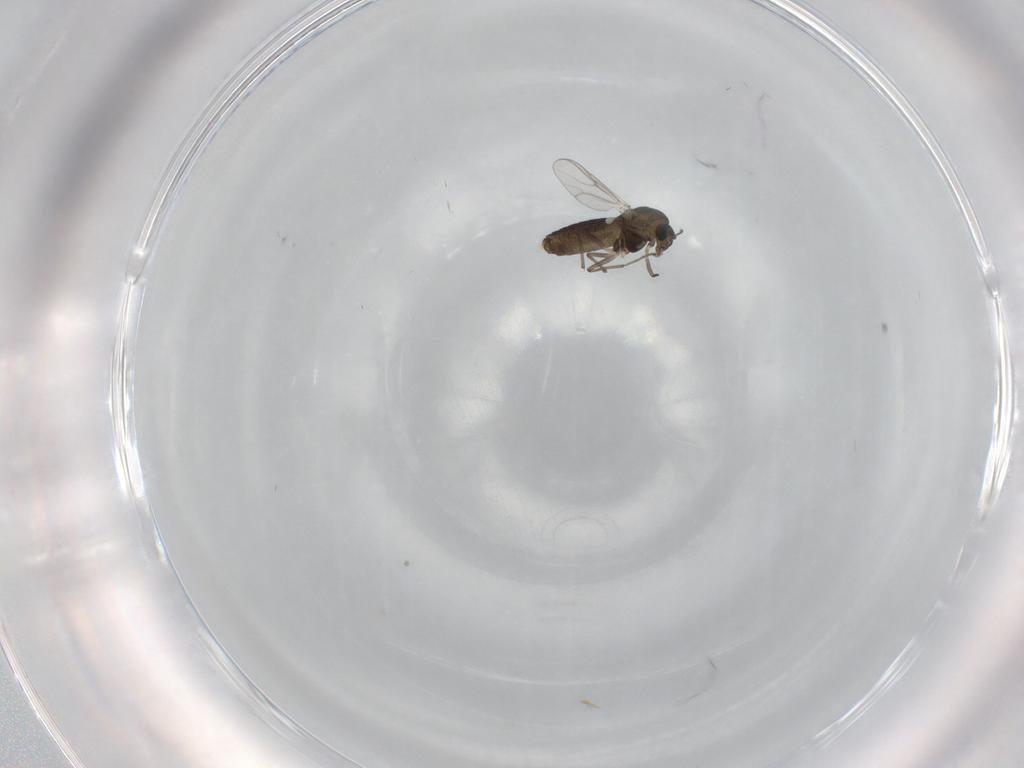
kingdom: Animalia
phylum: Arthropoda
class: Insecta
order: Diptera
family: Chironomidae
